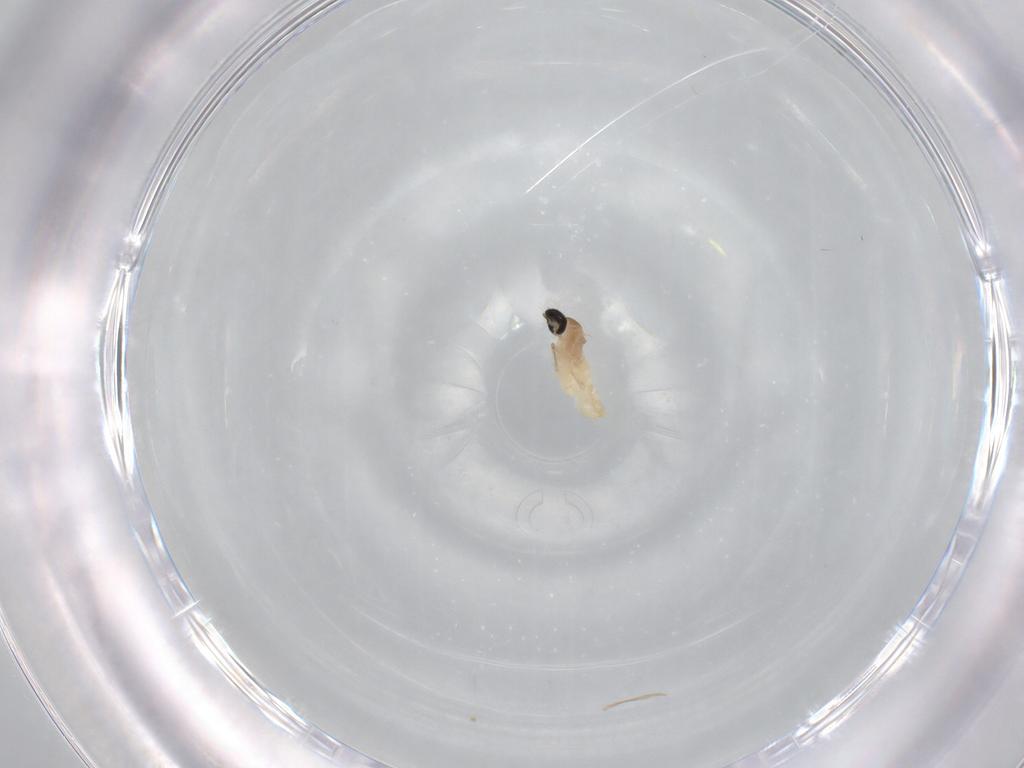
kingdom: Animalia
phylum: Arthropoda
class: Insecta
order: Diptera
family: Cecidomyiidae
